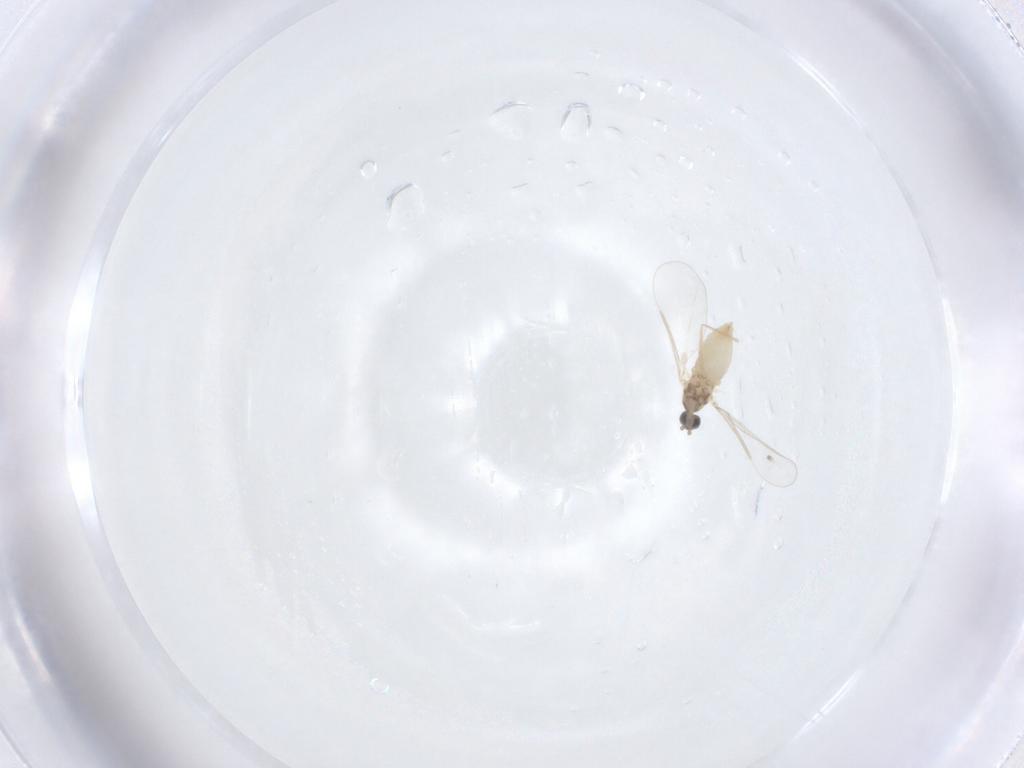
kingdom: Animalia
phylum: Arthropoda
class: Insecta
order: Diptera
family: Cecidomyiidae
